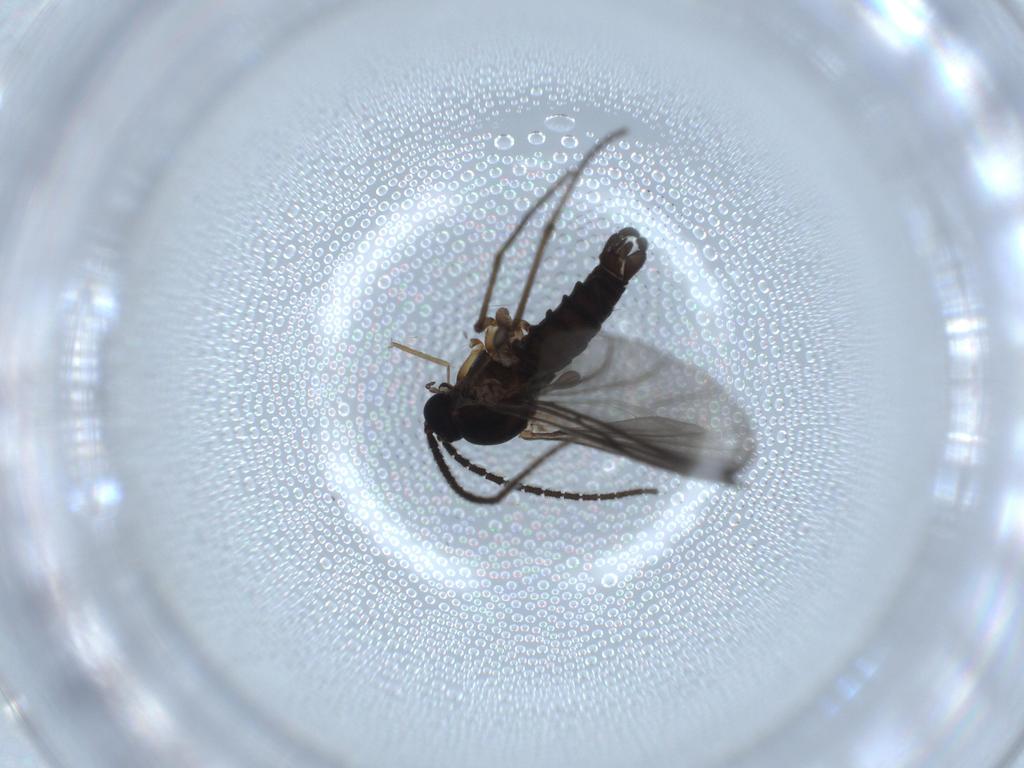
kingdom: Animalia
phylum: Arthropoda
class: Insecta
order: Diptera
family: Sciaridae
